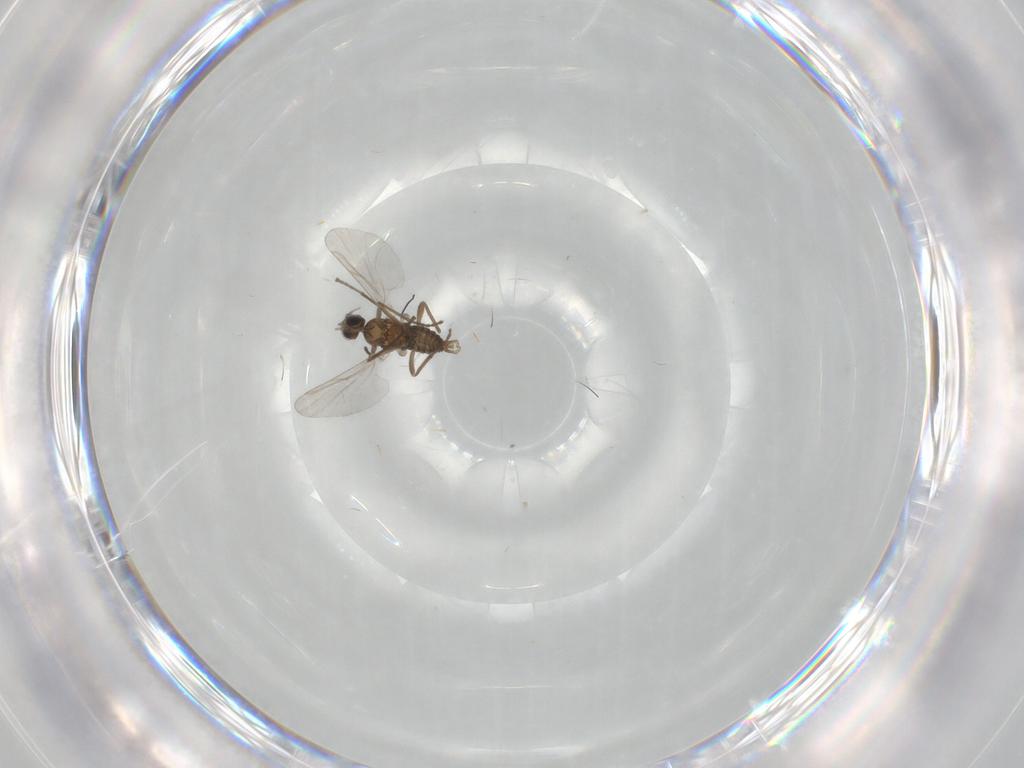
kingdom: Animalia
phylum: Arthropoda
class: Insecta
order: Diptera
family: Cecidomyiidae
